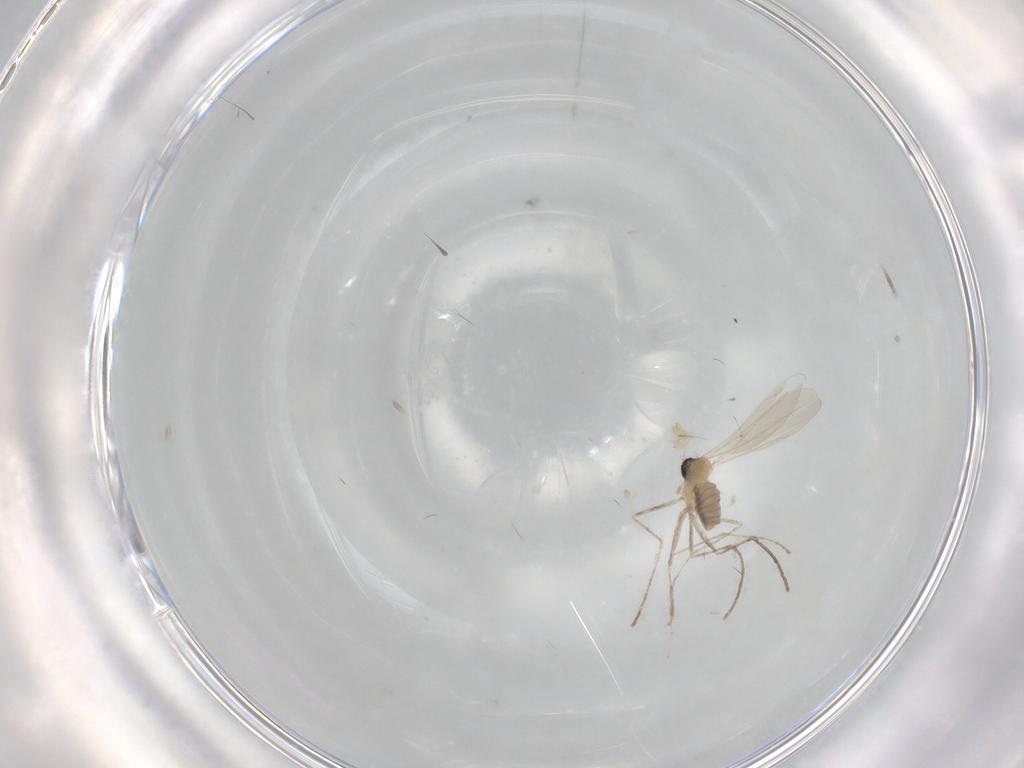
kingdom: Animalia
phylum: Arthropoda
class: Insecta
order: Diptera
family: Cecidomyiidae
